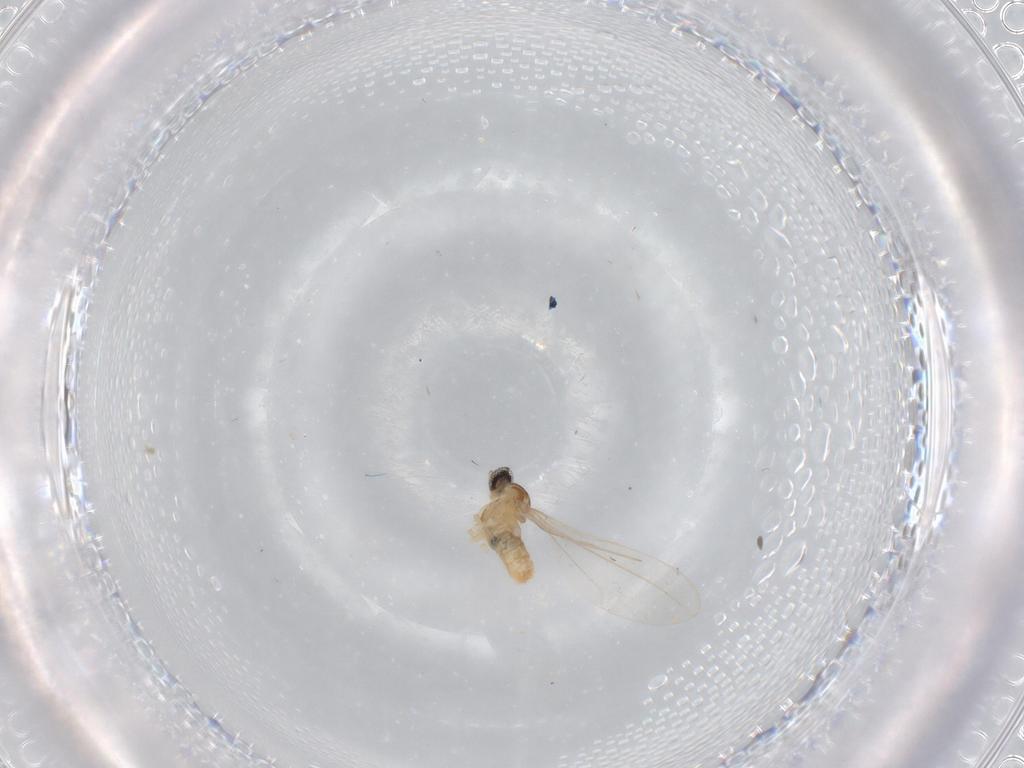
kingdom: Animalia
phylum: Arthropoda
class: Insecta
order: Diptera
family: Cecidomyiidae
